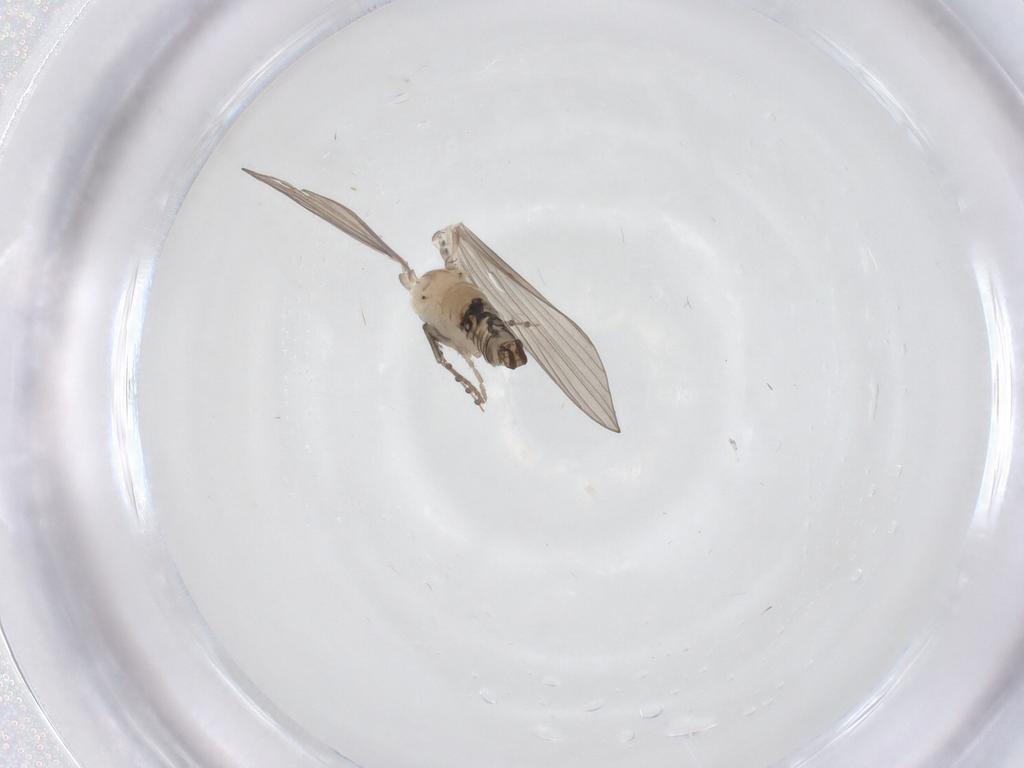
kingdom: Animalia
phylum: Arthropoda
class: Insecta
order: Diptera
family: Psychodidae
